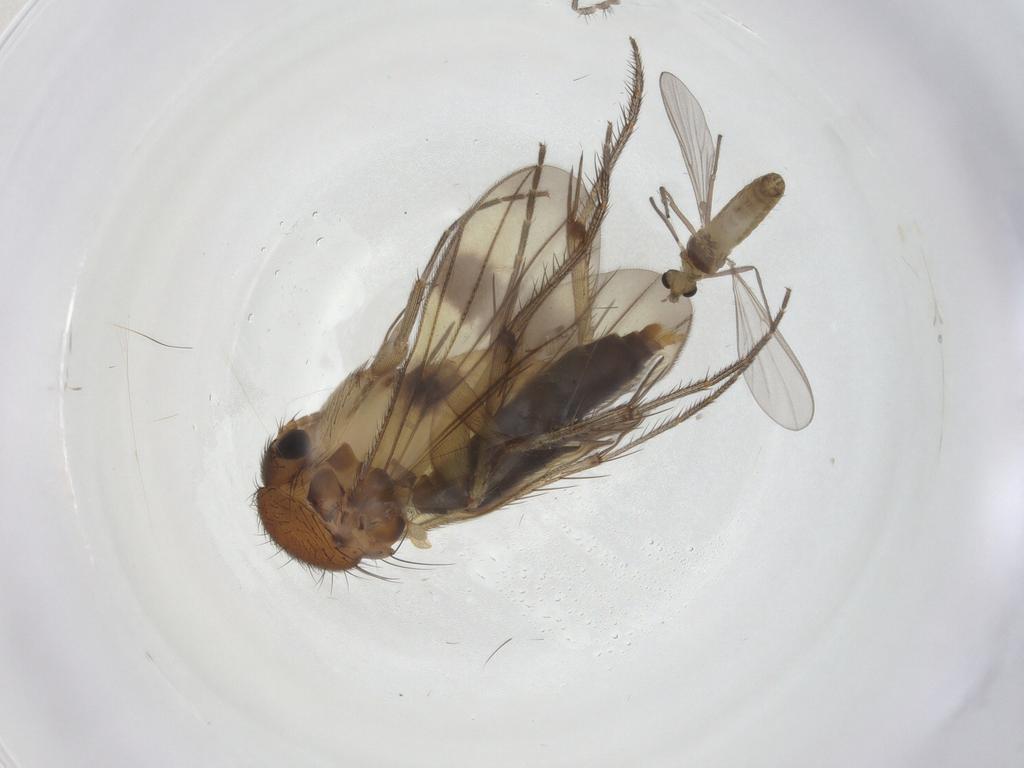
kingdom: Animalia
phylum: Arthropoda
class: Insecta
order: Diptera
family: Chironomidae
